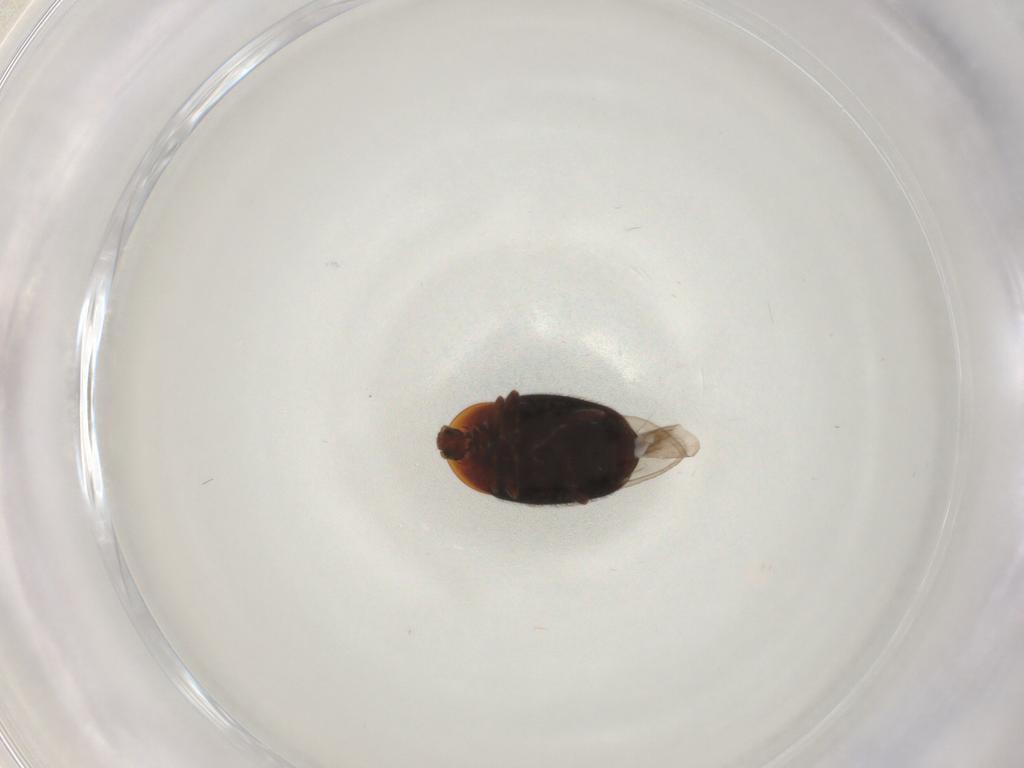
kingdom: Animalia
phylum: Arthropoda
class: Insecta
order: Coleoptera
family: Corylophidae
